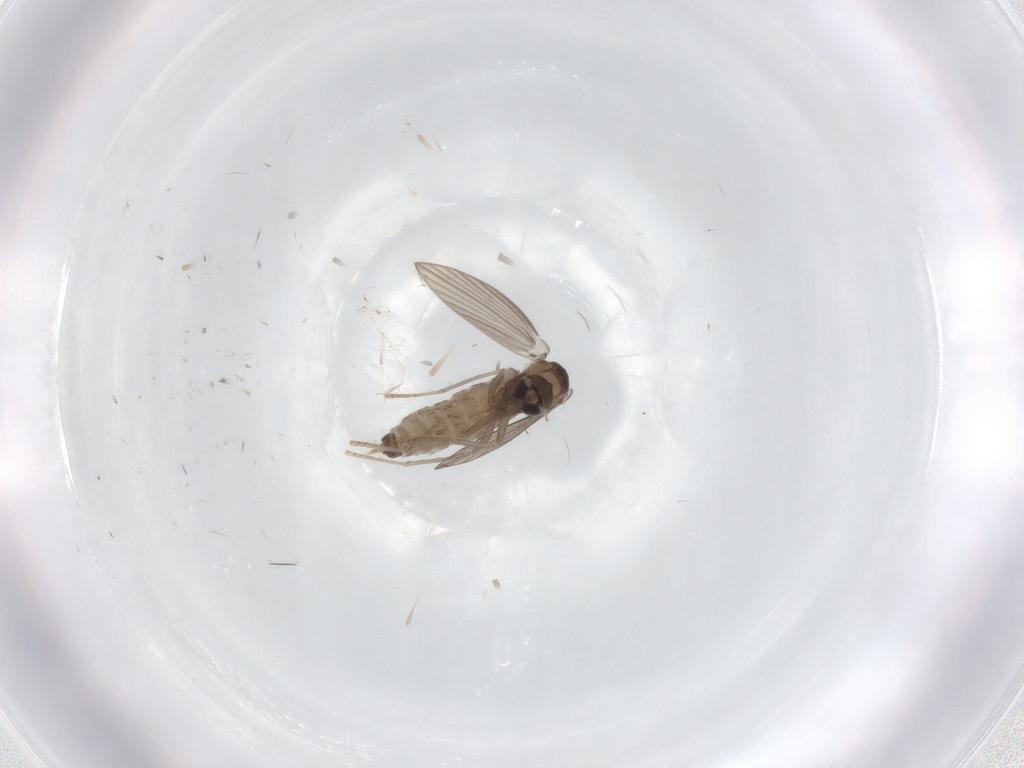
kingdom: Animalia
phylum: Arthropoda
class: Insecta
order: Diptera
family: Psychodidae
